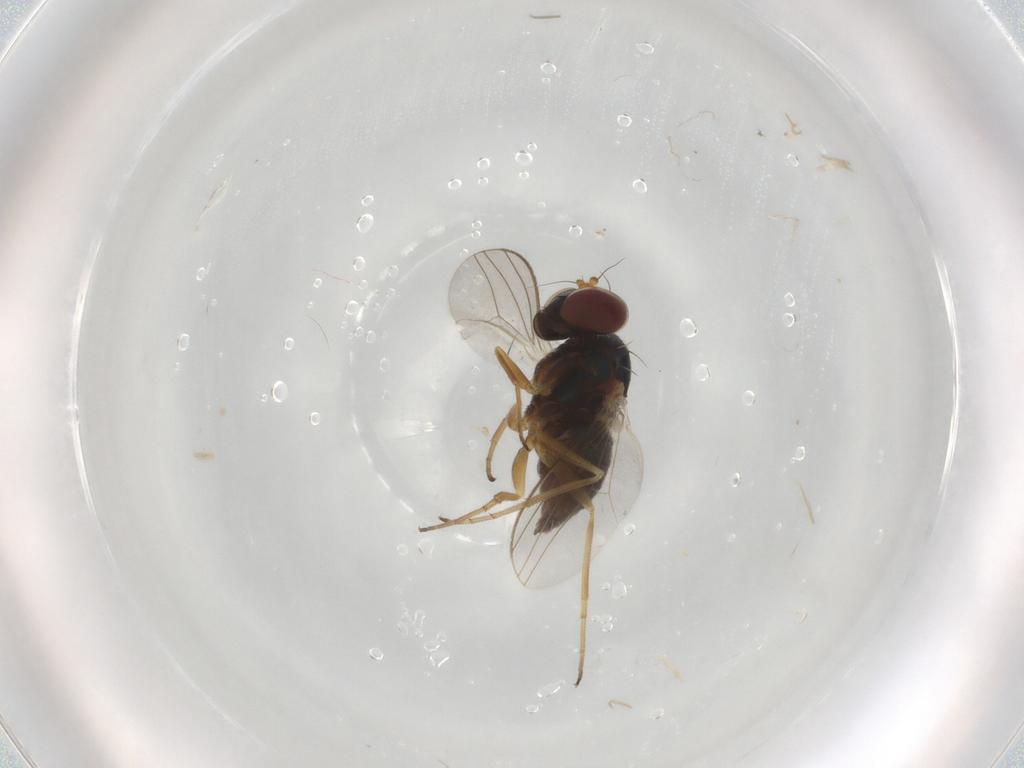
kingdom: Animalia
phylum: Arthropoda
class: Insecta
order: Diptera
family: Dolichopodidae
